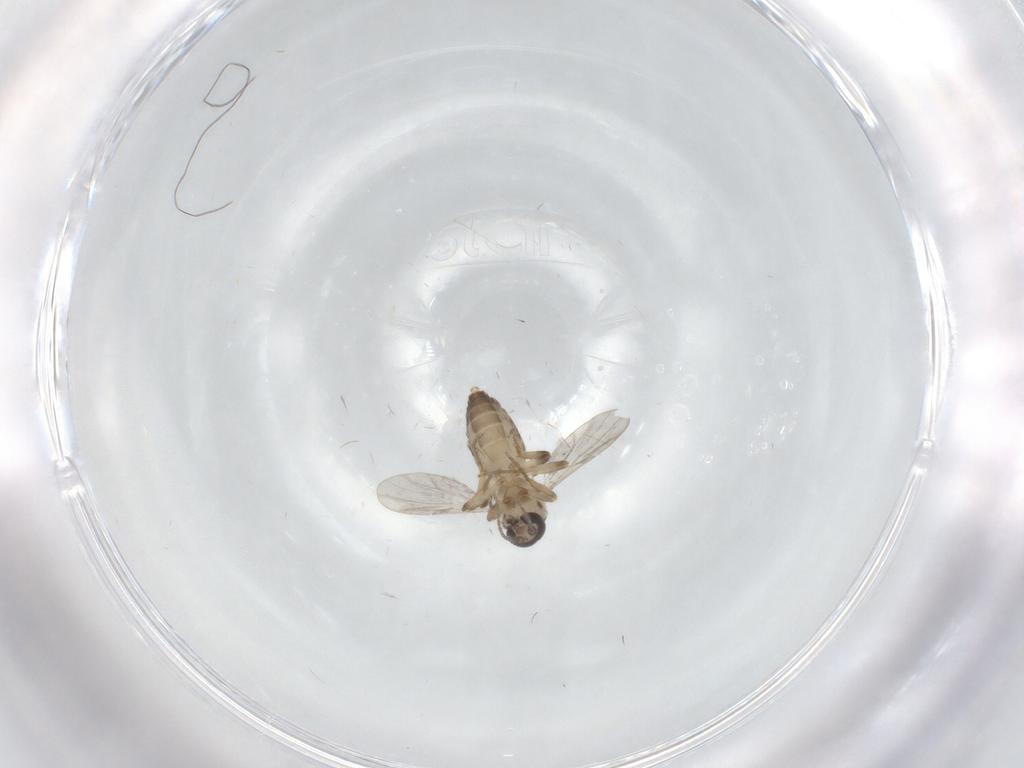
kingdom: Animalia
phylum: Arthropoda
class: Insecta
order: Diptera
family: Ceratopogonidae
